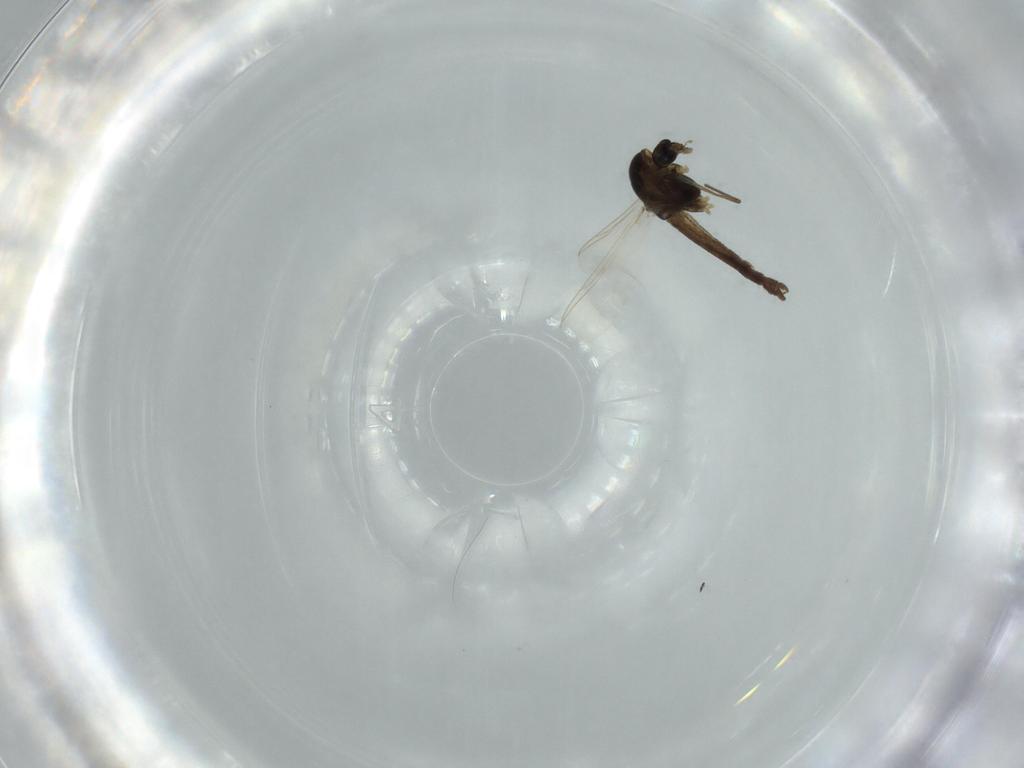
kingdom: Animalia
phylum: Arthropoda
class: Insecta
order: Diptera
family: Chironomidae
